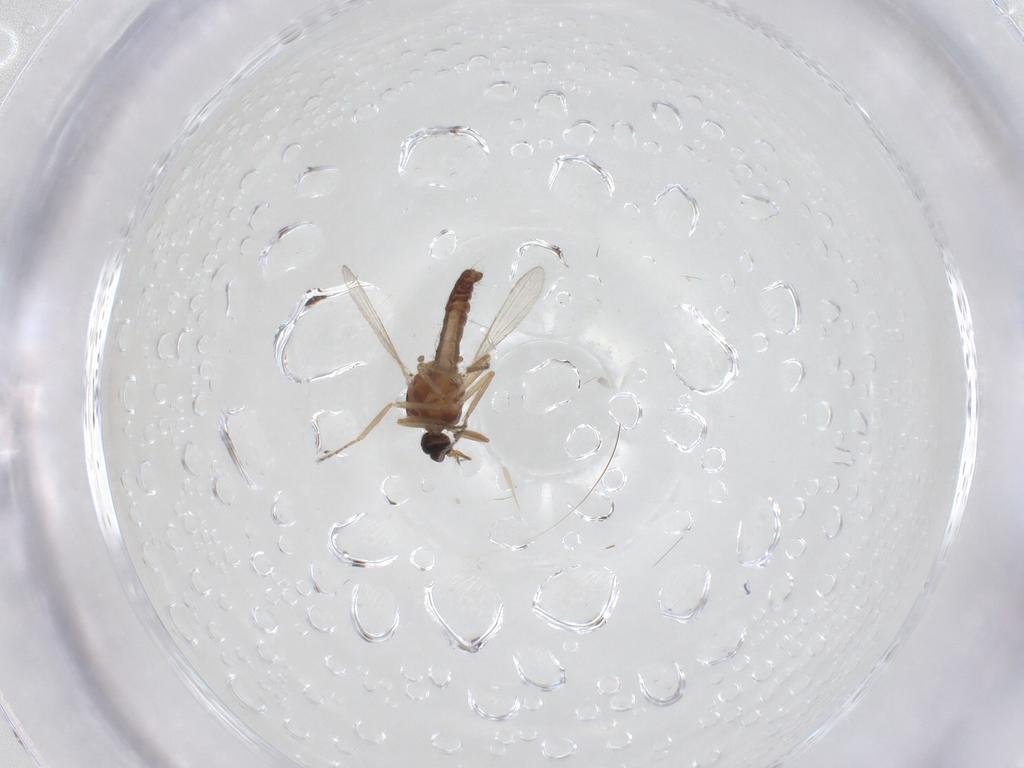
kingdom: Animalia
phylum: Arthropoda
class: Insecta
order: Diptera
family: Ceratopogonidae
